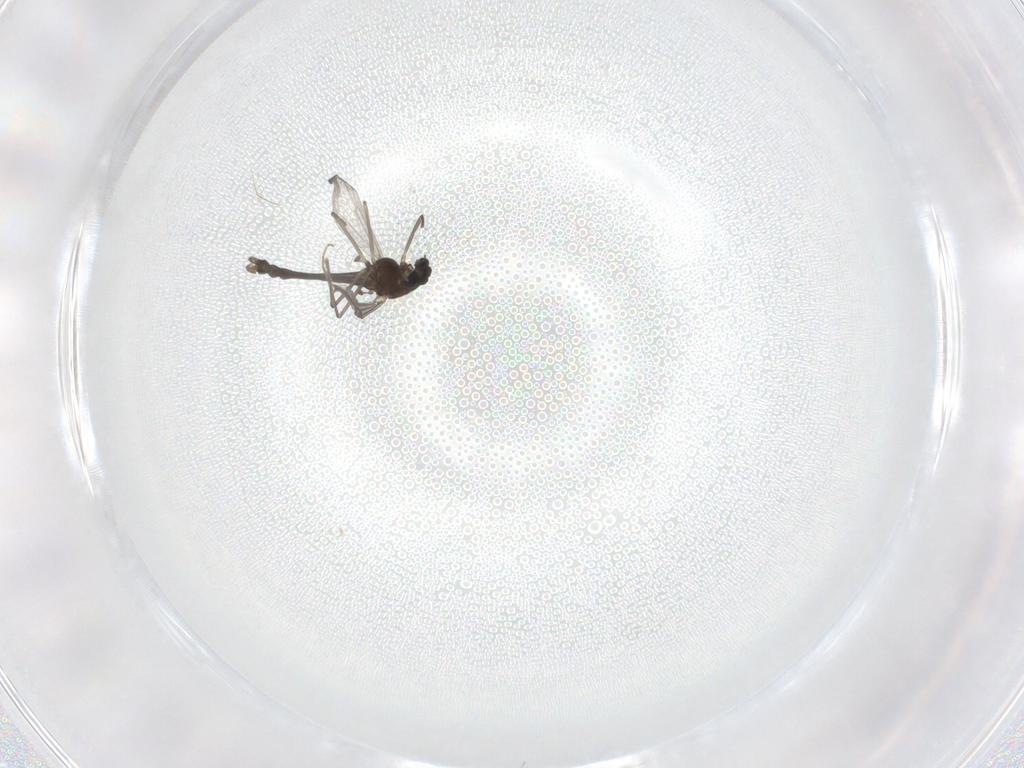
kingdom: Animalia
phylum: Arthropoda
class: Insecta
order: Diptera
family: Chironomidae
